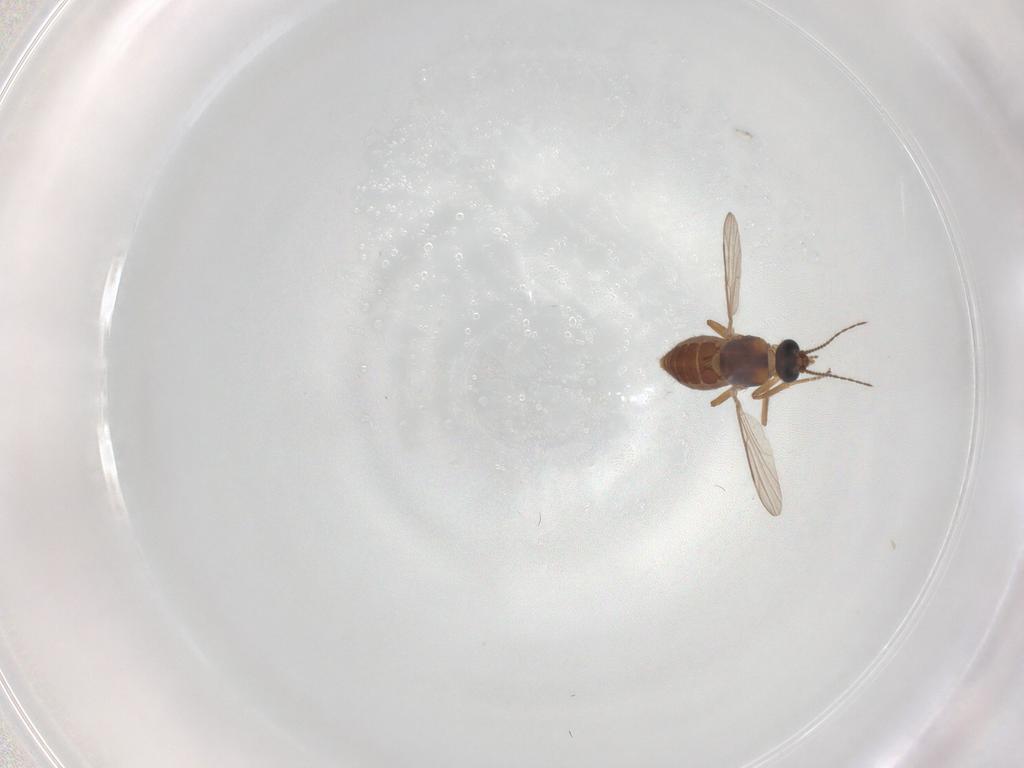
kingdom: Animalia
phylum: Arthropoda
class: Insecta
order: Diptera
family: Ceratopogonidae
